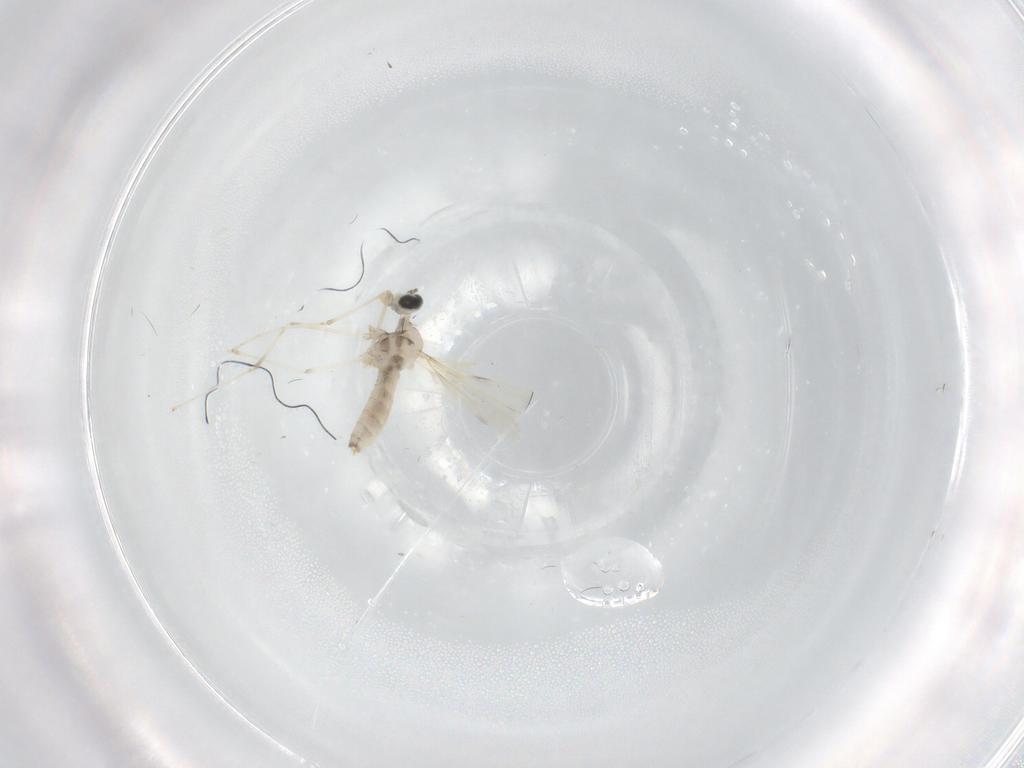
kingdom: Animalia
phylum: Arthropoda
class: Insecta
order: Diptera
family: Cecidomyiidae
